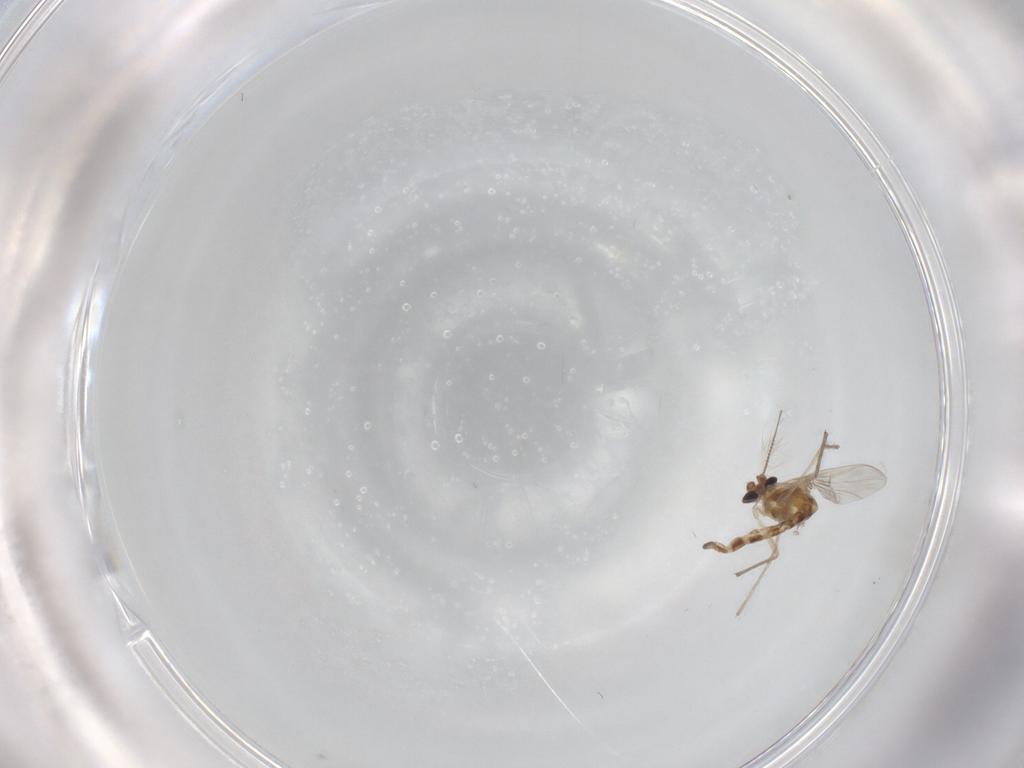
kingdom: Animalia
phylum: Arthropoda
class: Insecta
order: Diptera
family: Chironomidae
